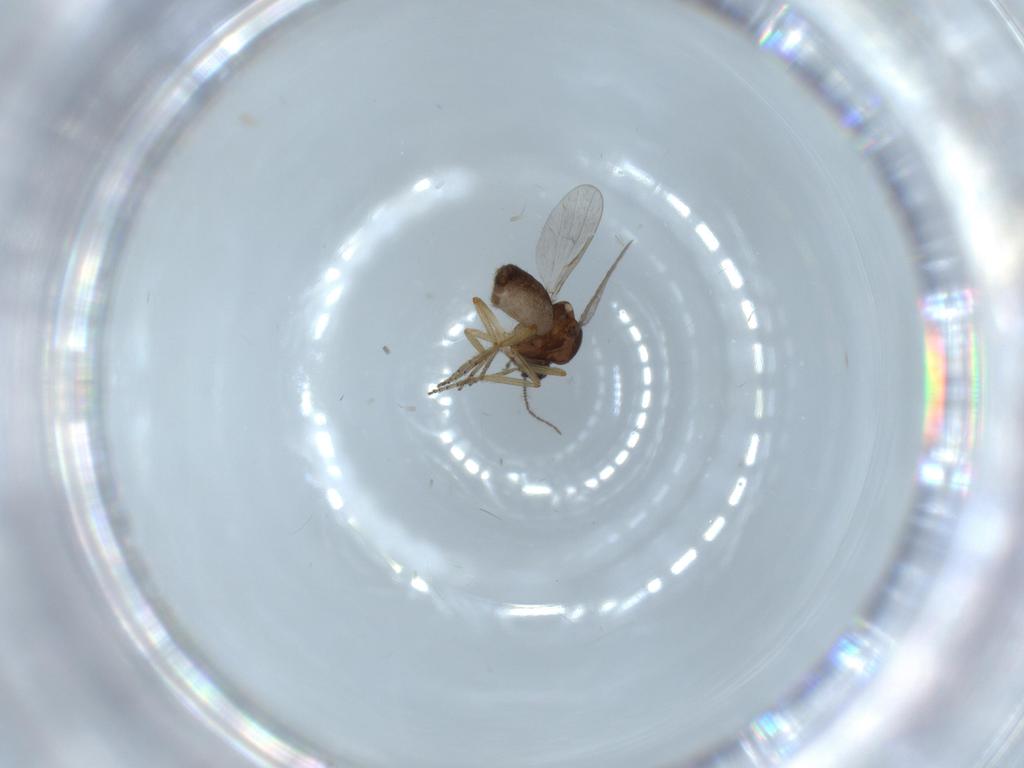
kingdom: Animalia
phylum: Arthropoda
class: Insecta
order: Diptera
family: Ceratopogonidae
